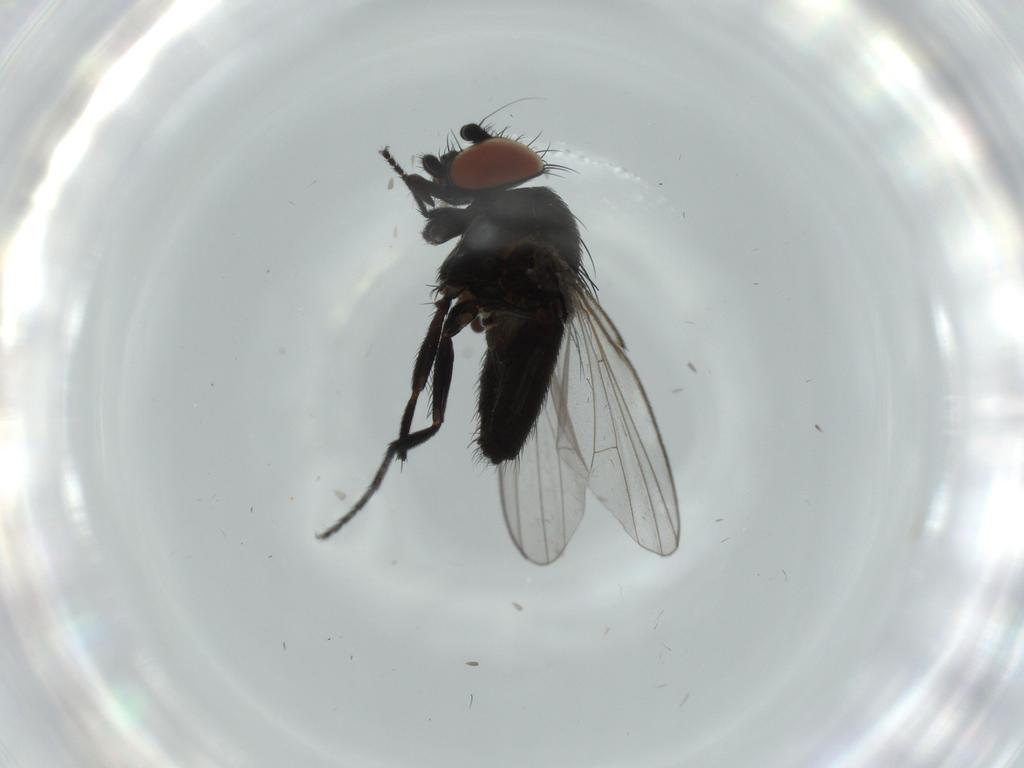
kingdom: Animalia
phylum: Arthropoda
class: Insecta
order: Diptera
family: Milichiidae
